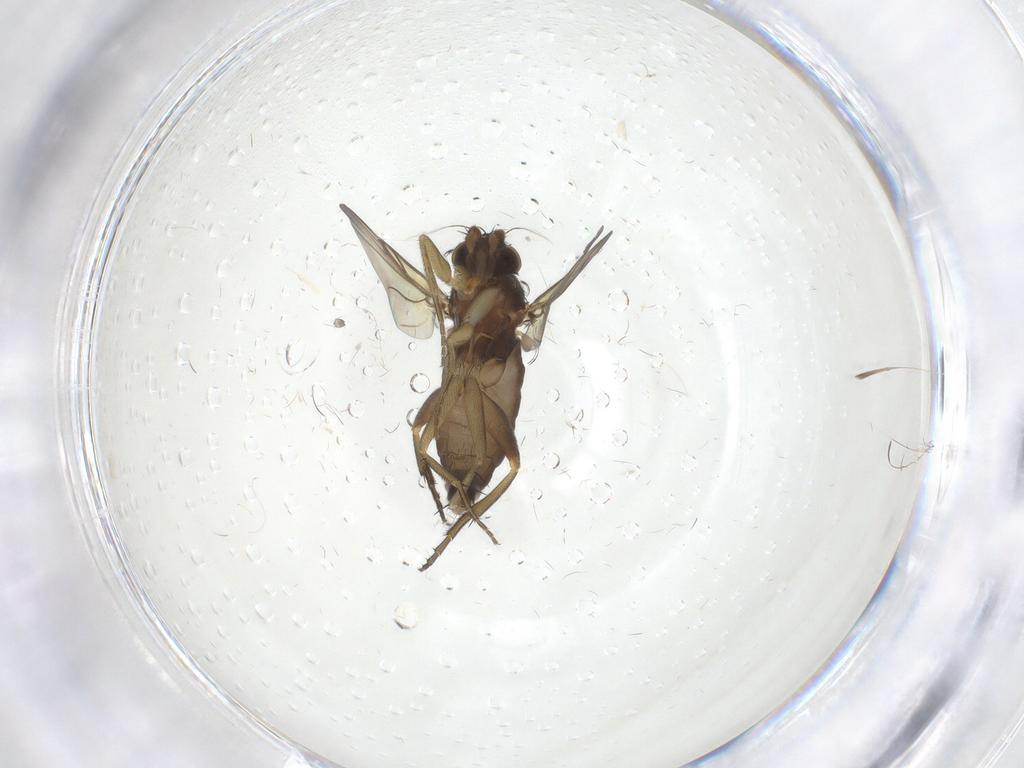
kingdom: Animalia
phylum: Arthropoda
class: Insecta
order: Diptera
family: Phoridae
